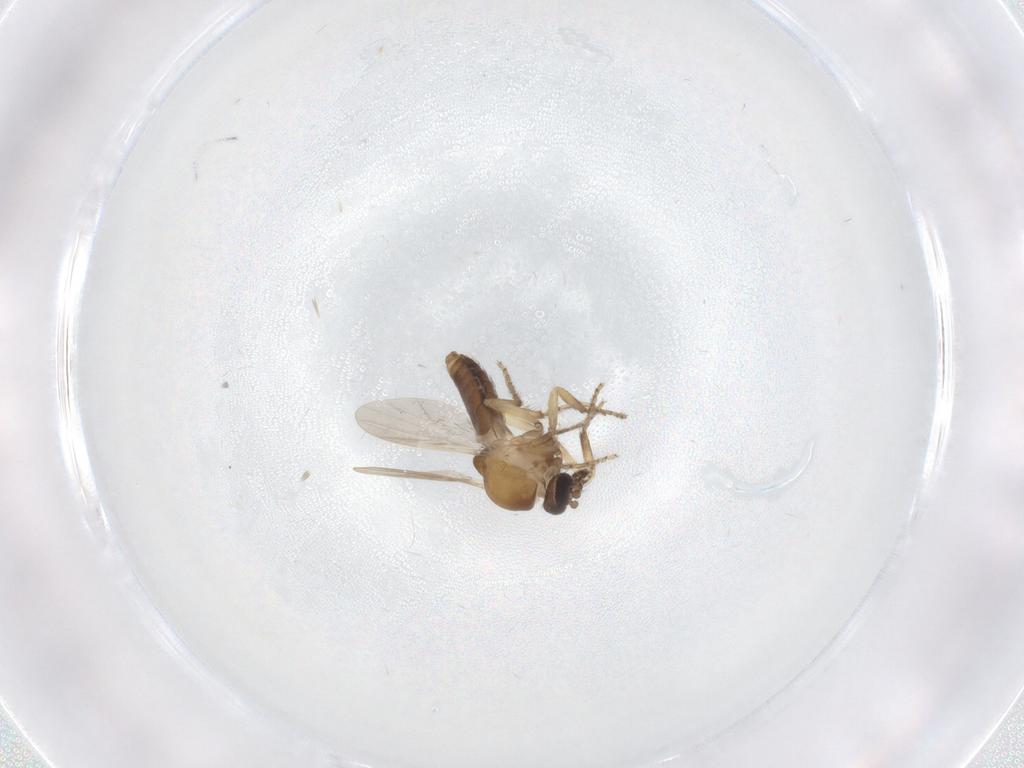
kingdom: Animalia
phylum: Arthropoda
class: Insecta
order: Diptera
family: Ceratopogonidae
